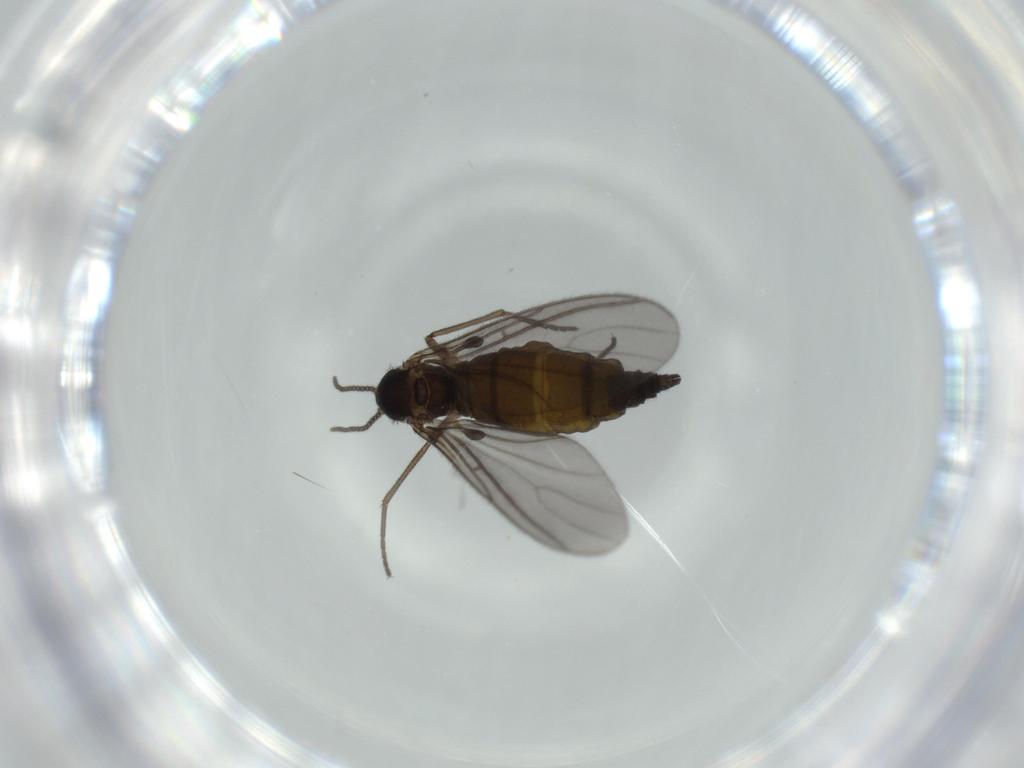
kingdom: Animalia
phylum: Arthropoda
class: Insecta
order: Diptera
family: Sciaridae
